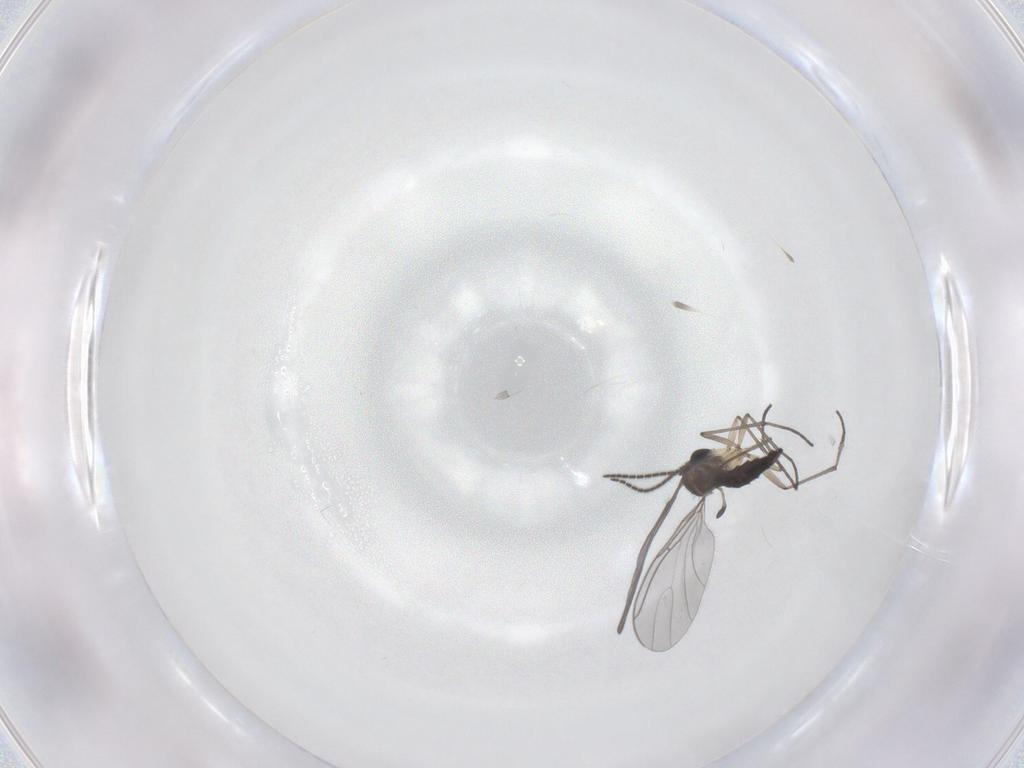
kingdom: Animalia
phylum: Arthropoda
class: Insecta
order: Diptera
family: Sciaridae
